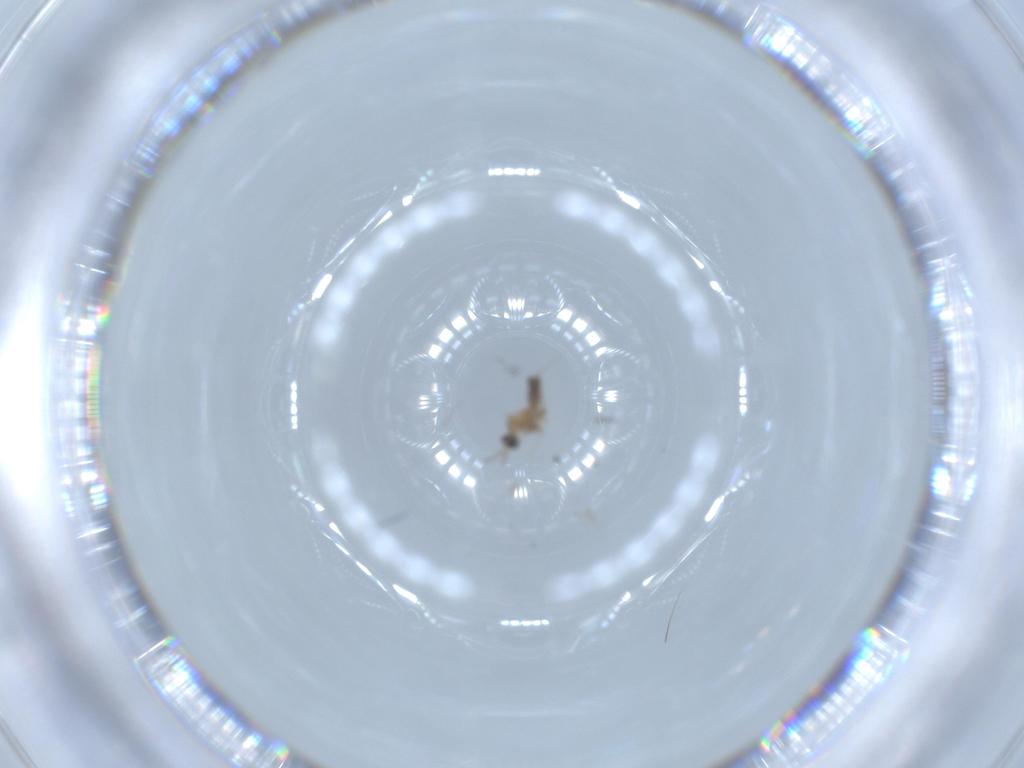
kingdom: Animalia
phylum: Arthropoda
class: Insecta
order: Diptera
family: Cecidomyiidae
